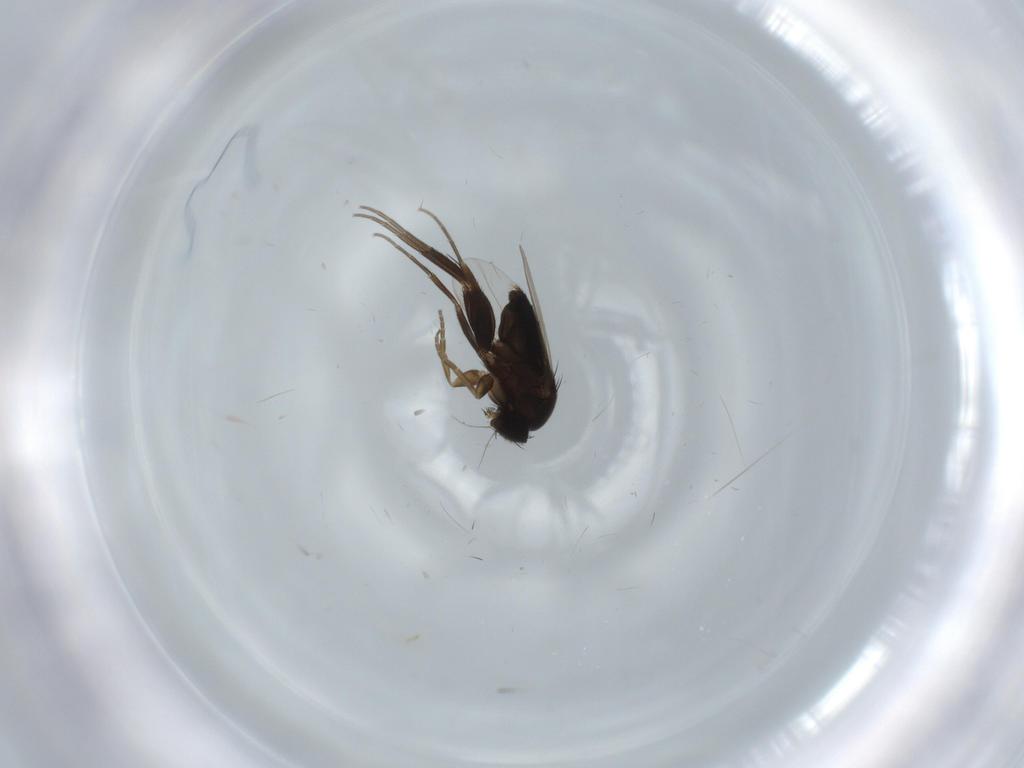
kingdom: Animalia
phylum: Arthropoda
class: Insecta
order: Diptera
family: Phoridae
